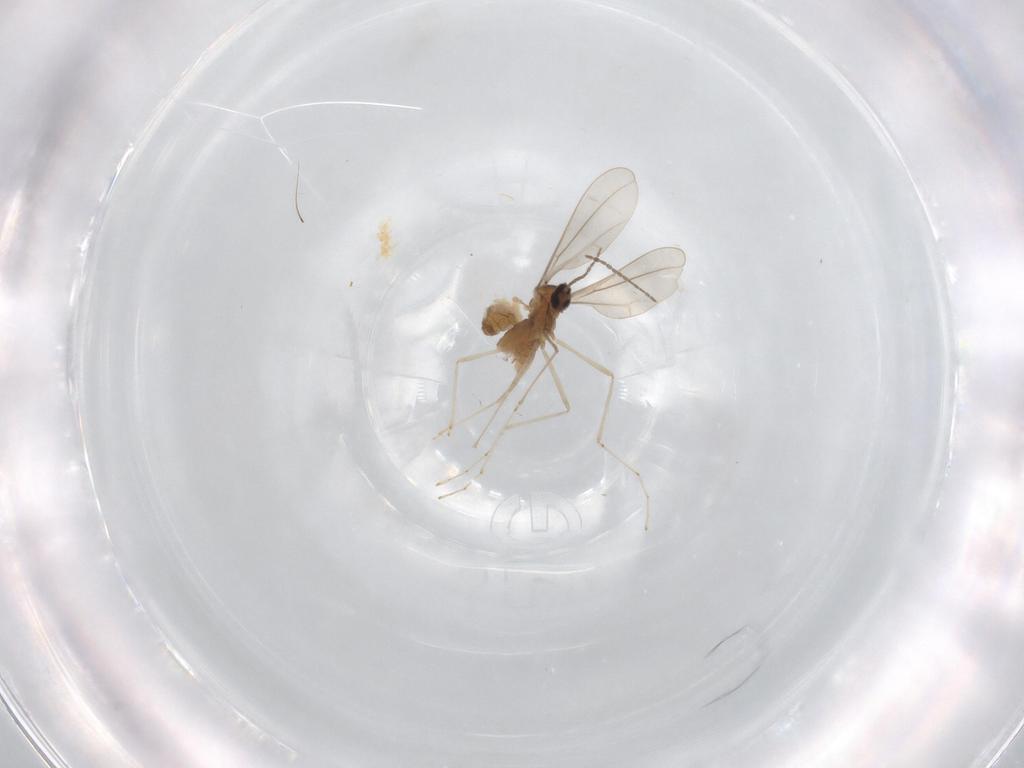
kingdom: Animalia
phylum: Arthropoda
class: Insecta
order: Diptera
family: Cecidomyiidae
